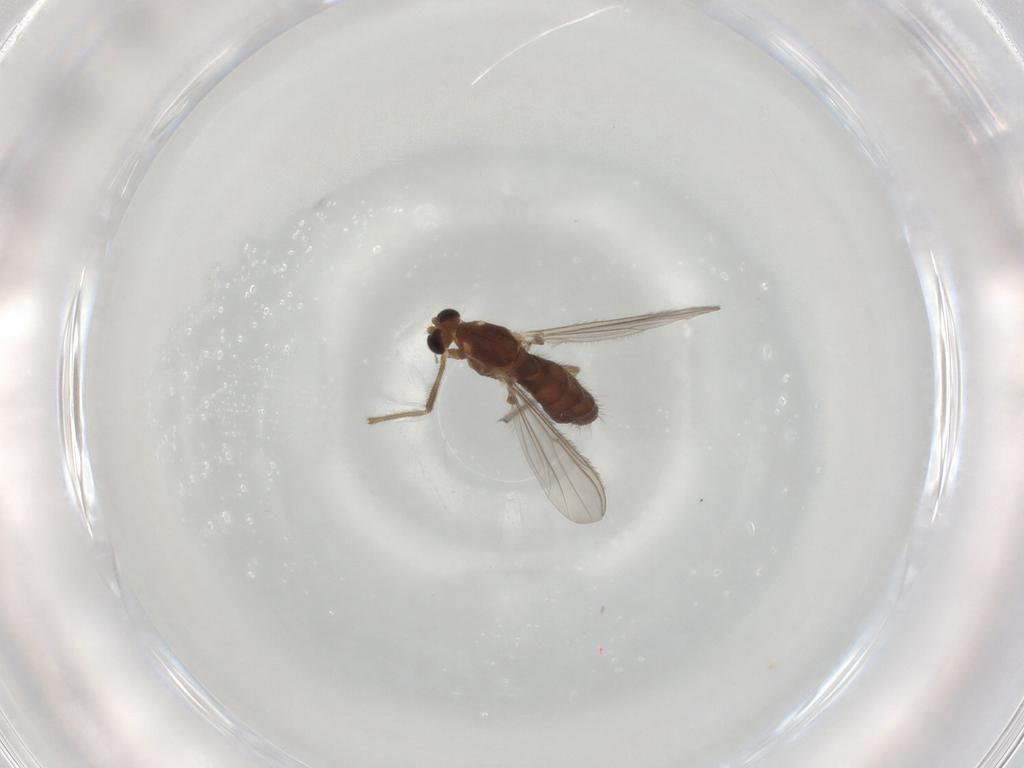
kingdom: Animalia
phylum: Arthropoda
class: Insecta
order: Diptera
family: Chironomidae
